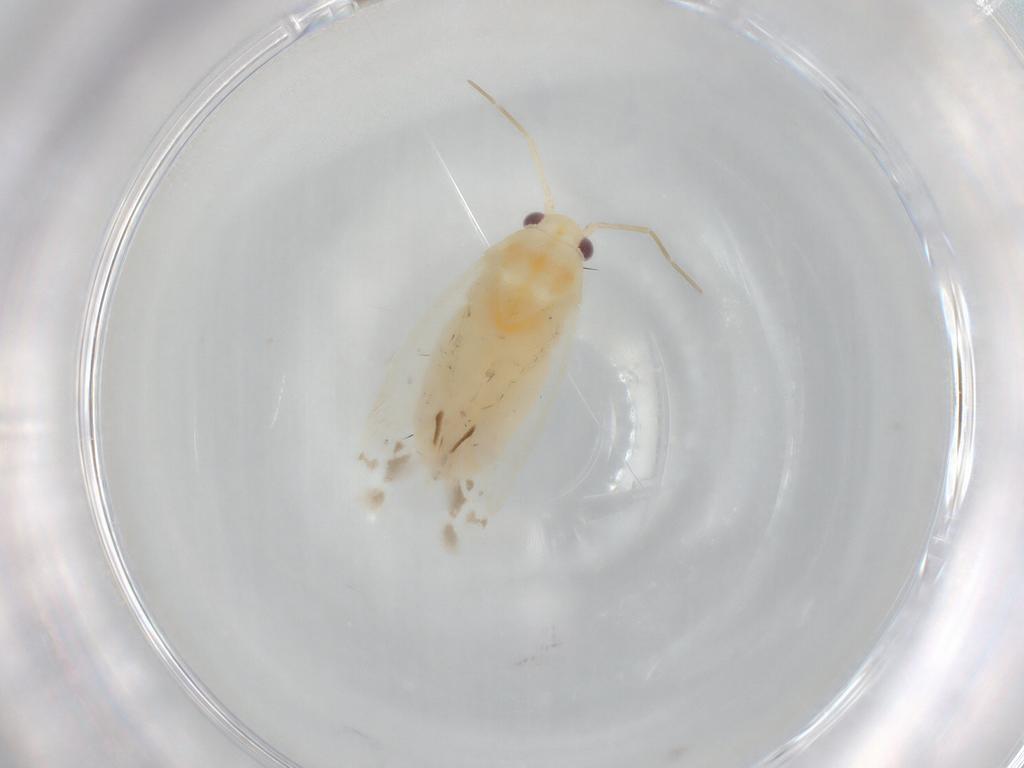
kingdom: Animalia
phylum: Arthropoda
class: Insecta
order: Hemiptera
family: Miridae
